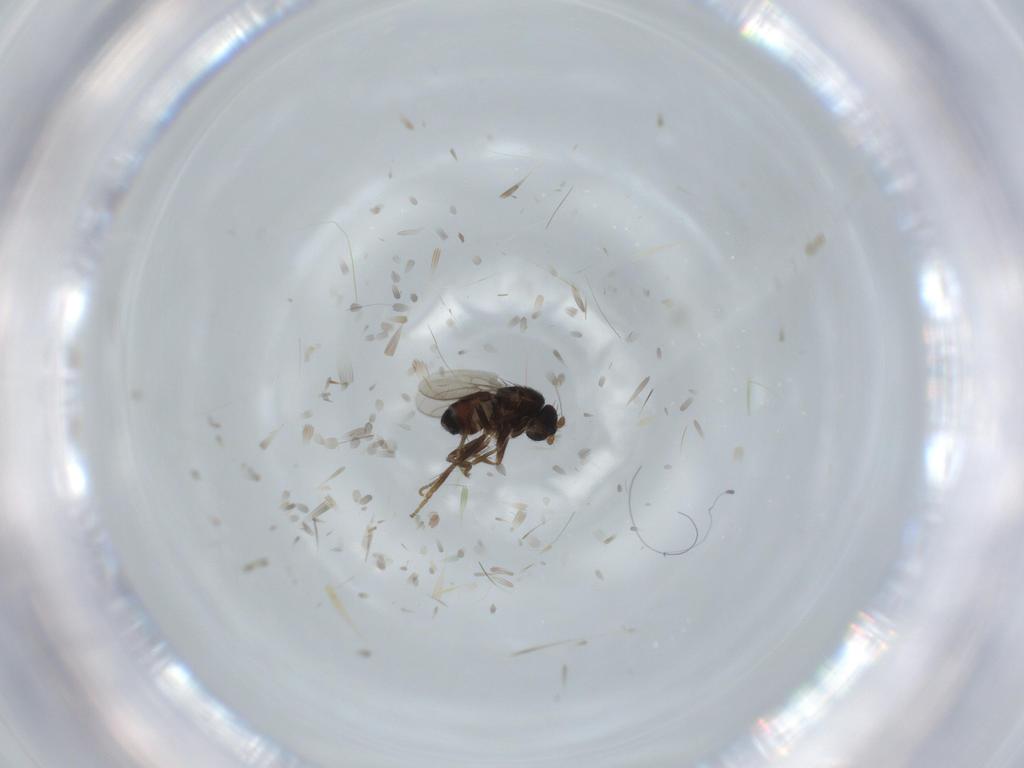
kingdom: Animalia
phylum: Arthropoda
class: Insecta
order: Diptera
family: Sphaeroceridae
